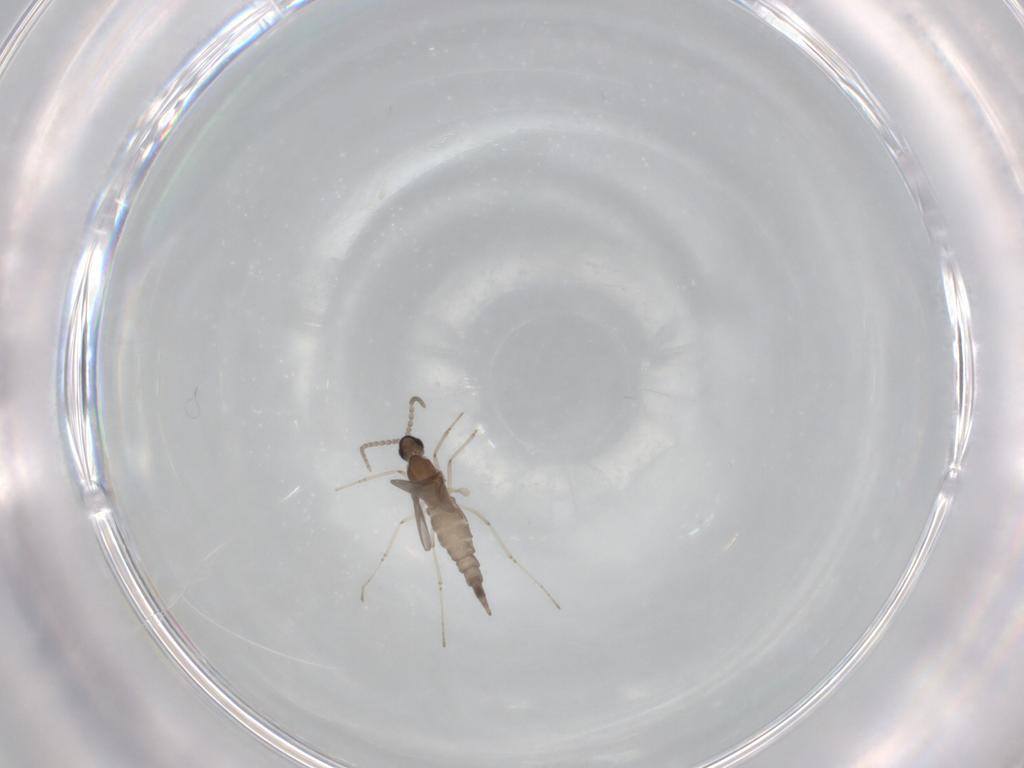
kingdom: Animalia
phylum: Arthropoda
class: Insecta
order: Diptera
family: Cecidomyiidae
